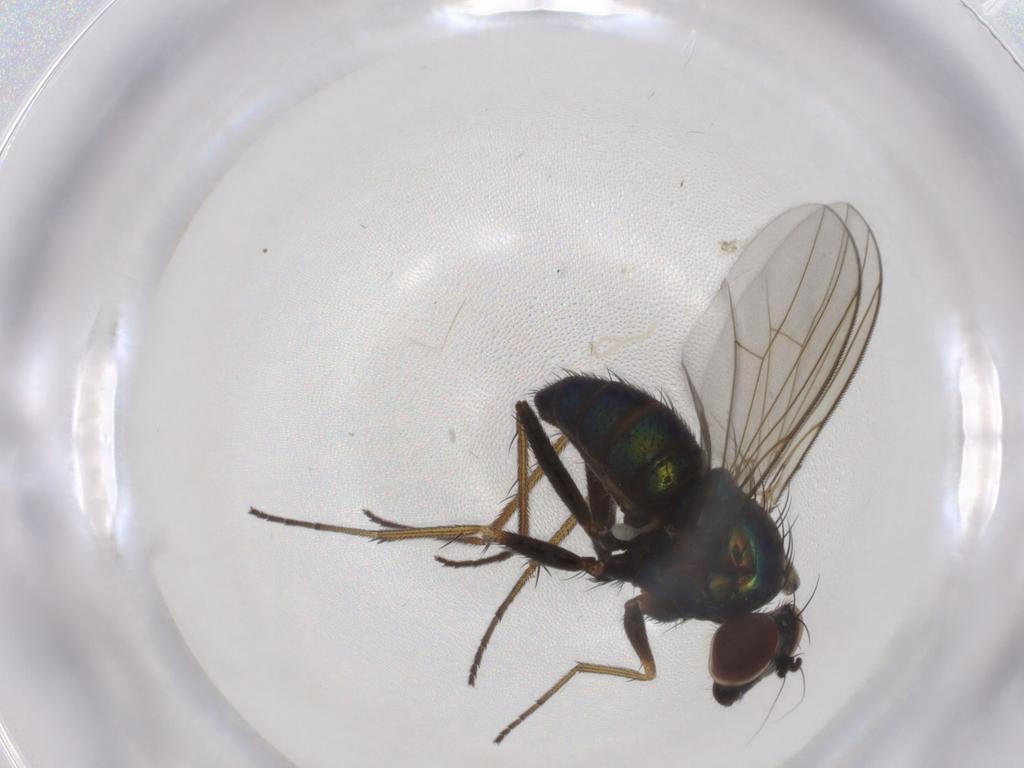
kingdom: Animalia
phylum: Arthropoda
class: Insecta
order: Diptera
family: Dolichopodidae
